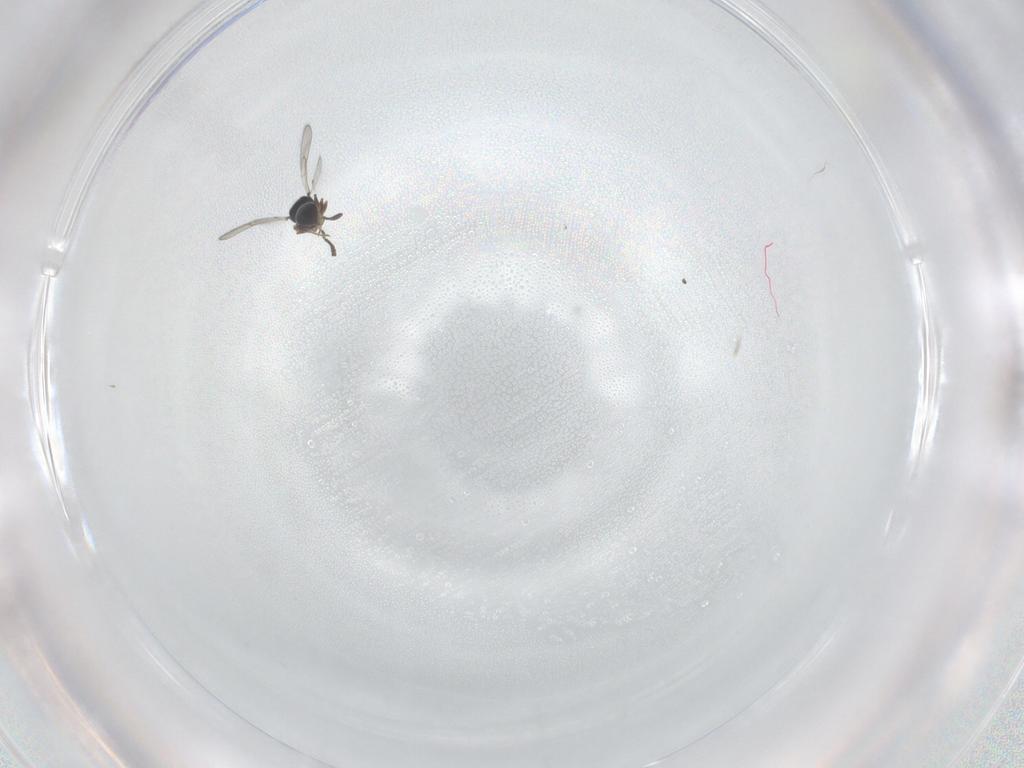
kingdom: Animalia
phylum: Arthropoda
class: Insecta
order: Hymenoptera
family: Scelionidae
